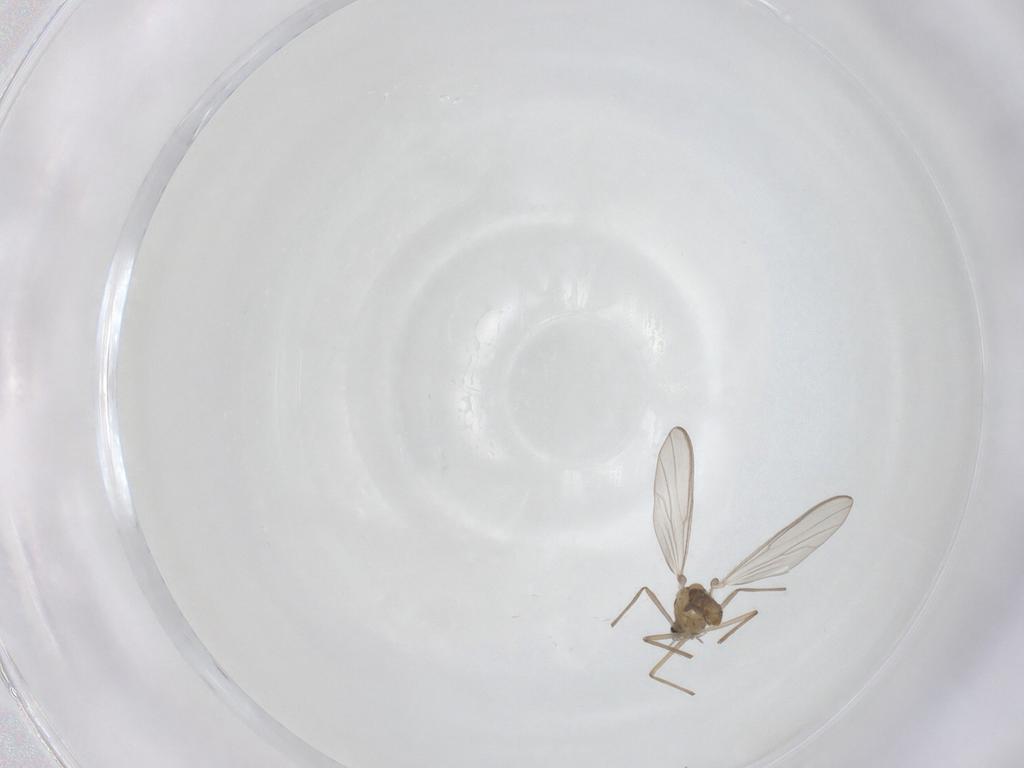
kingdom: Animalia
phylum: Arthropoda
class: Insecta
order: Diptera
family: Chironomidae
